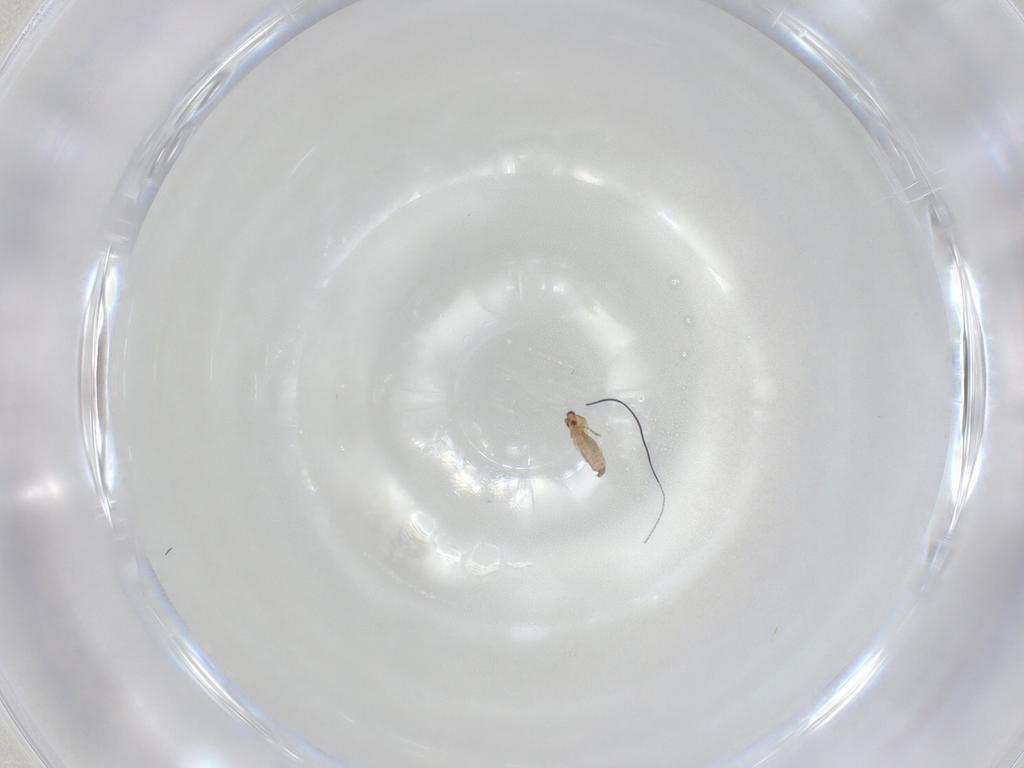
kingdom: Animalia
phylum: Arthropoda
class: Insecta
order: Diptera
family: Cecidomyiidae
